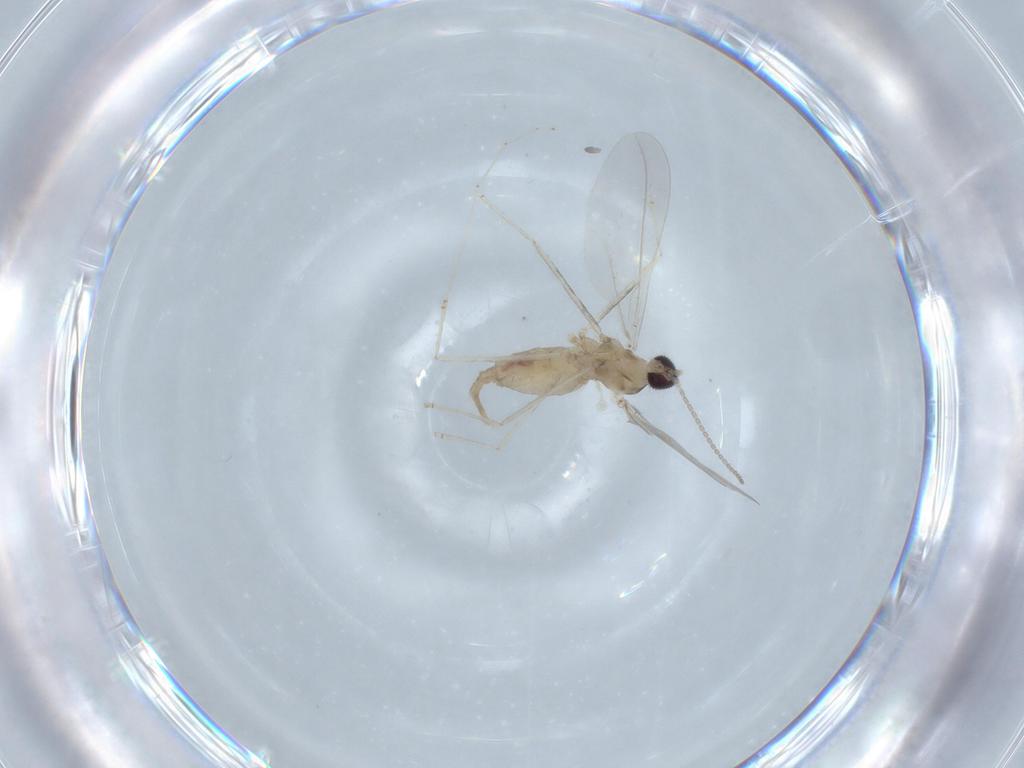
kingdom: Animalia
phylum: Arthropoda
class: Insecta
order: Diptera
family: Cecidomyiidae
